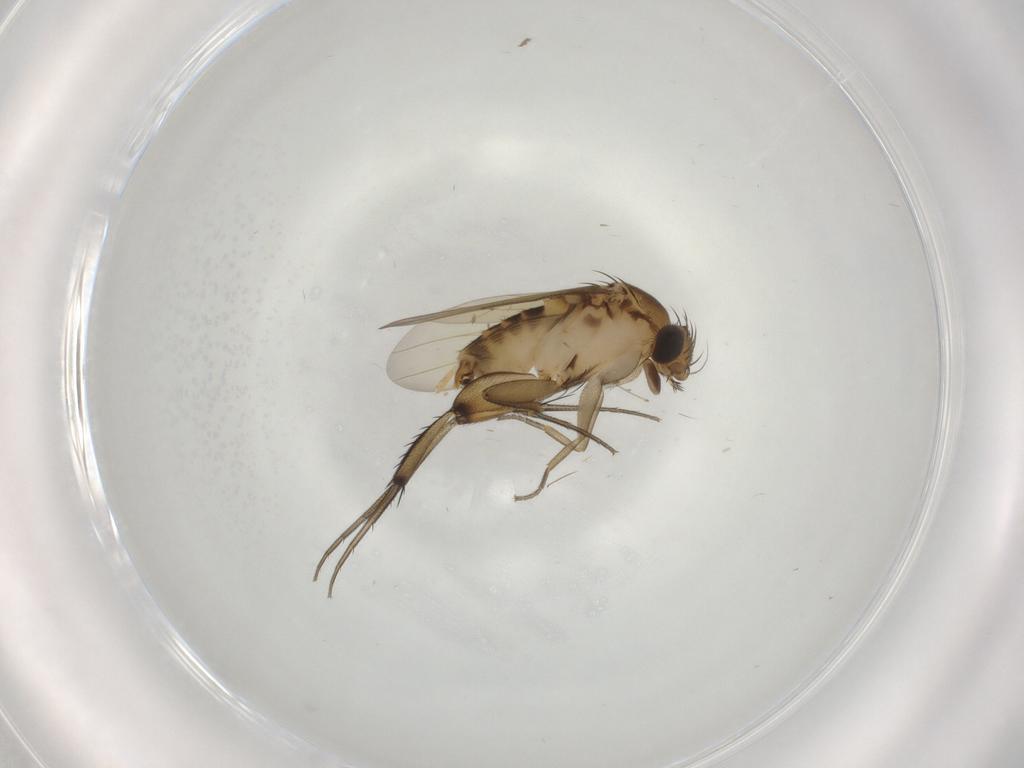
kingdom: Animalia
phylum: Arthropoda
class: Insecta
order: Diptera
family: Phoridae
